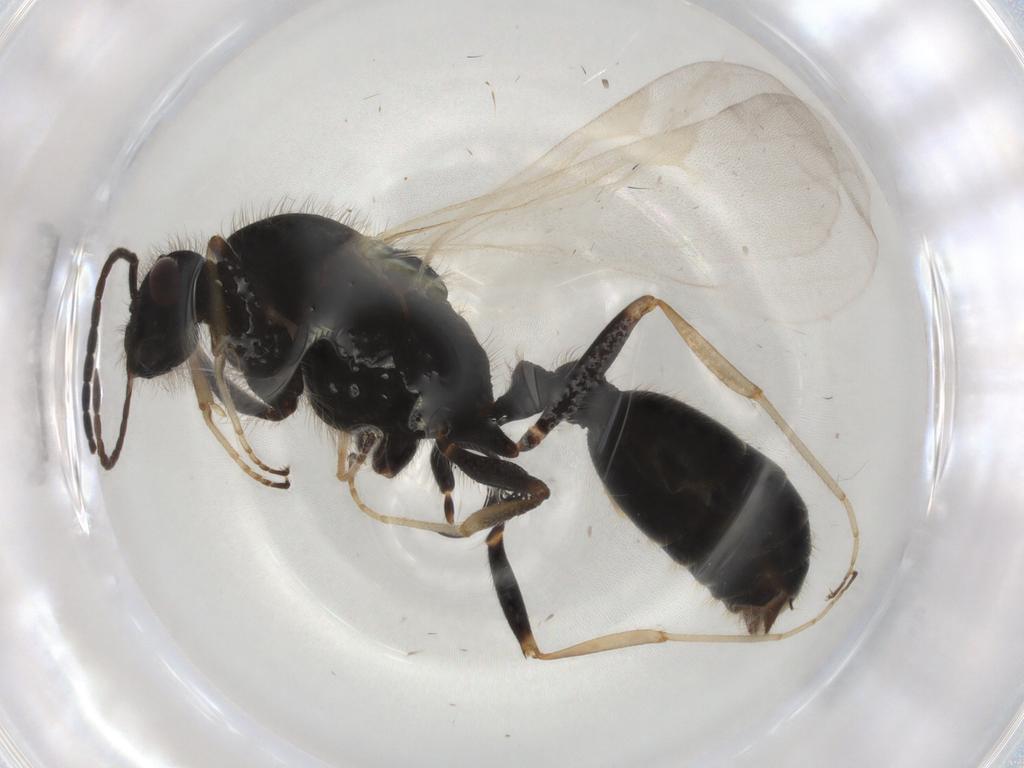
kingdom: Animalia
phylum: Arthropoda
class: Insecta
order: Hymenoptera
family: Formicidae
